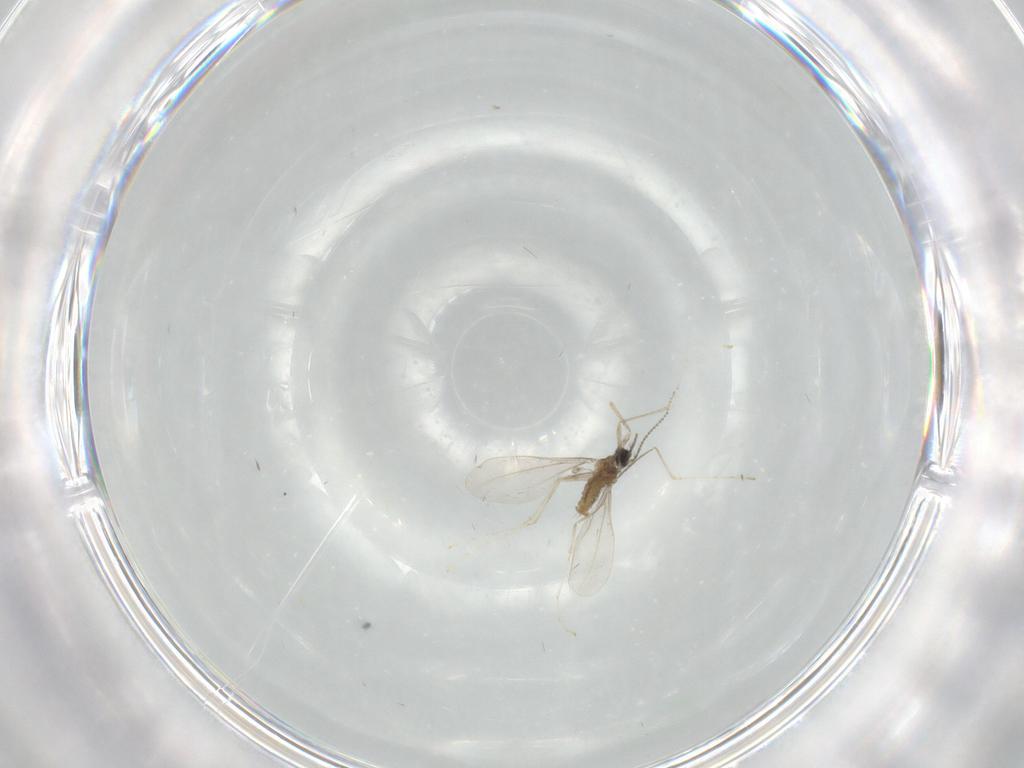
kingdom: Animalia
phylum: Arthropoda
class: Insecta
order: Diptera
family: Cecidomyiidae
